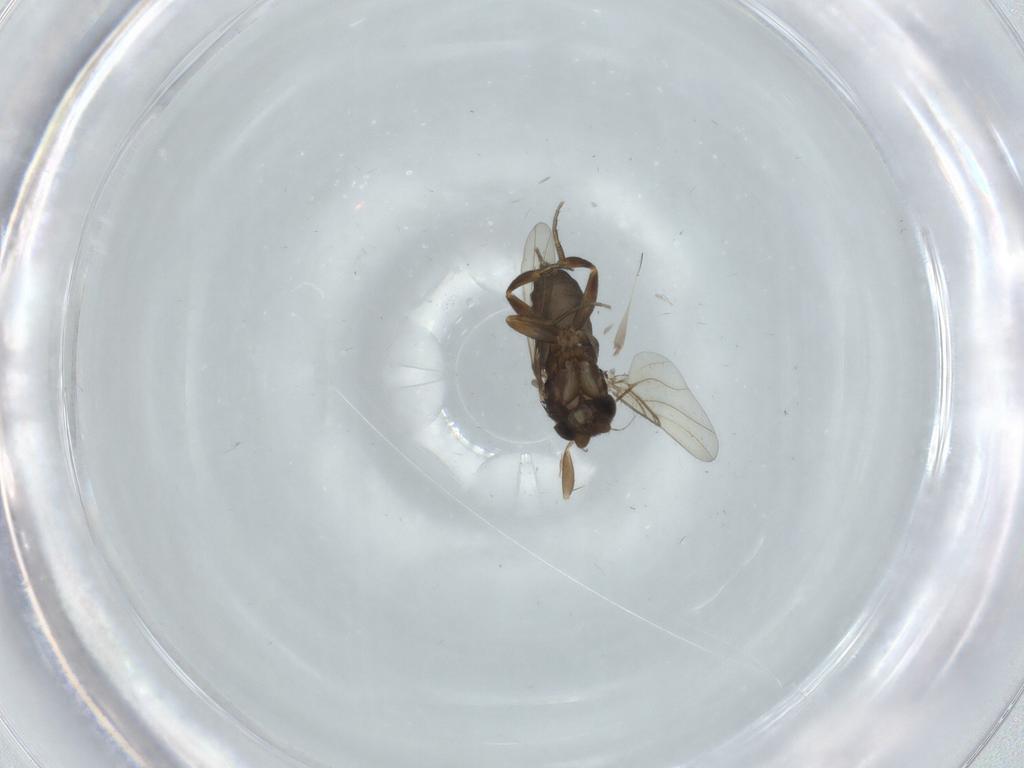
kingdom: Animalia
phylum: Arthropoda
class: Insecta
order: Diptera
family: Phoridae
